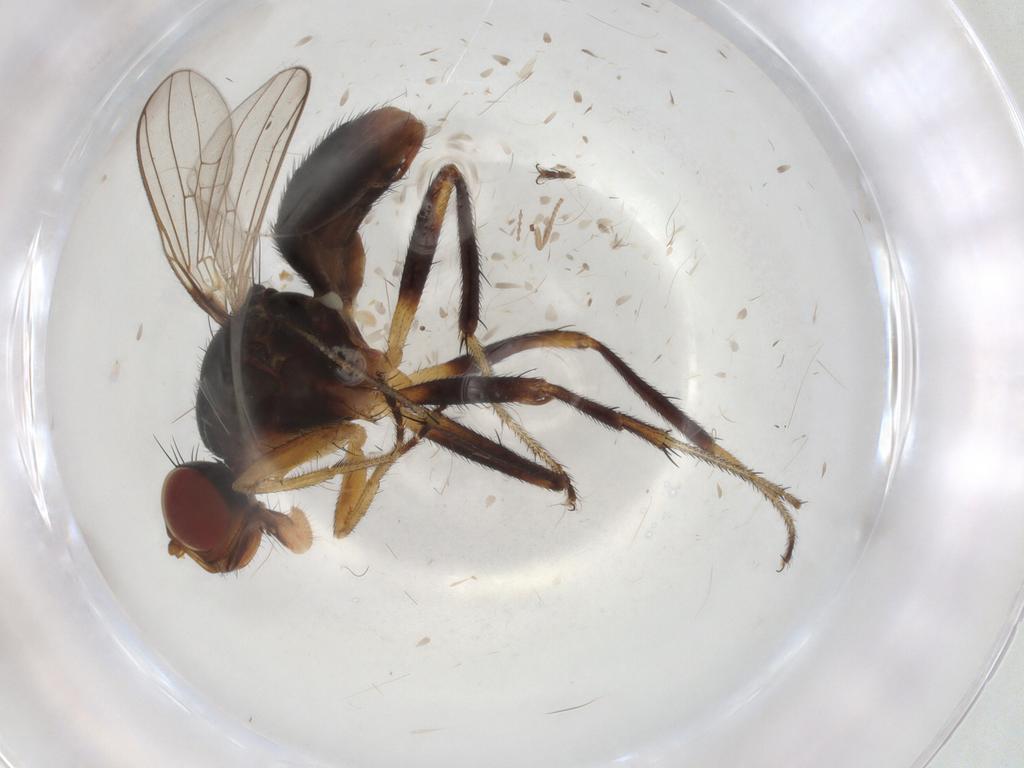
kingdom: Animalia
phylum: Arthropoda
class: Insecta
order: Diptera
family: Sepsidae
